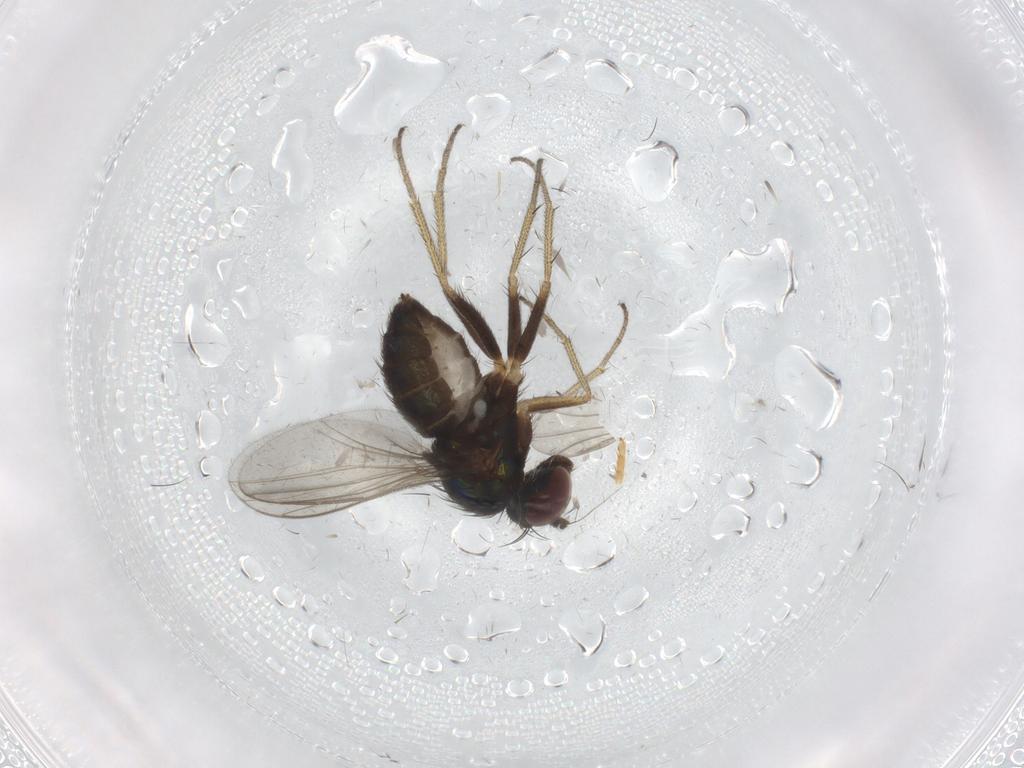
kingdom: Animalia
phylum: Arthropoda
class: Insecta
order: Diptera
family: Dolichopodidae
